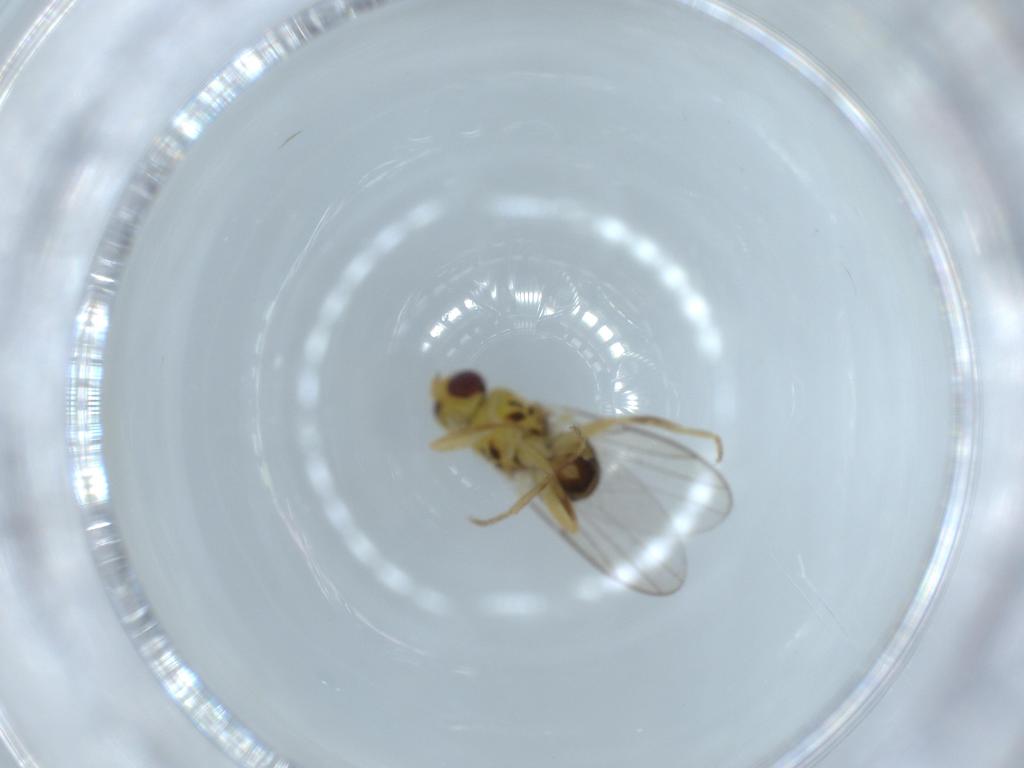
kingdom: Animalia
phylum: Arthropoda
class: Insecta
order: Diptera
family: Chloropidae
